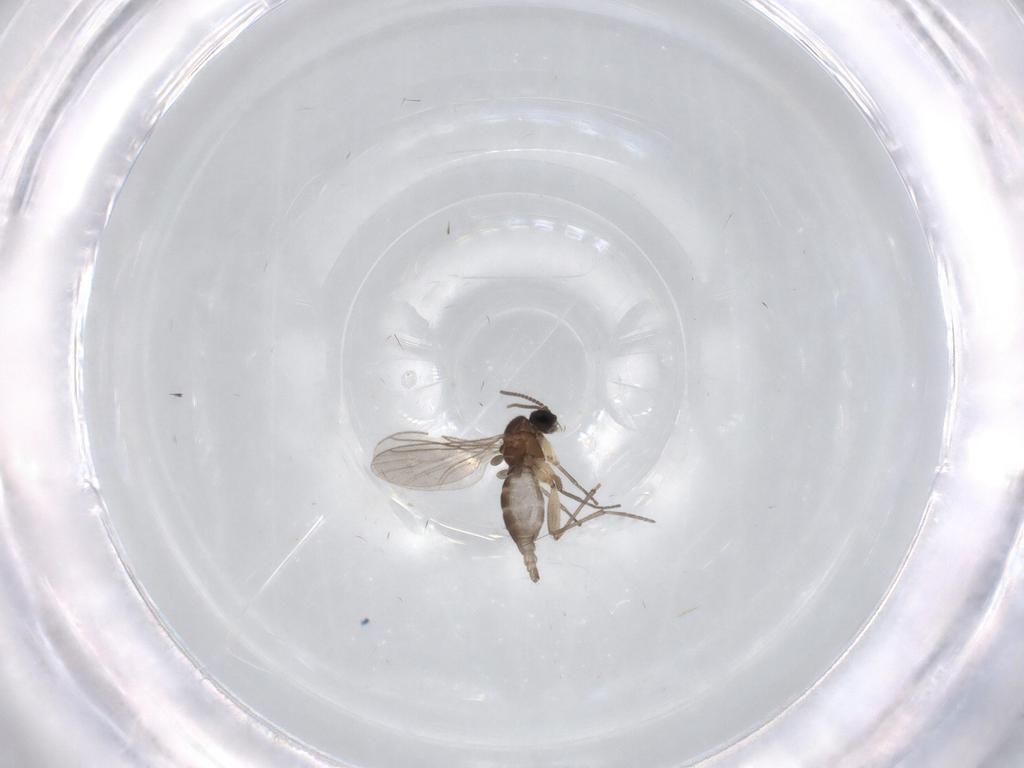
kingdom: Animalia
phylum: Arthropoda
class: Insecta
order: Diptera
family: Sciaridae
